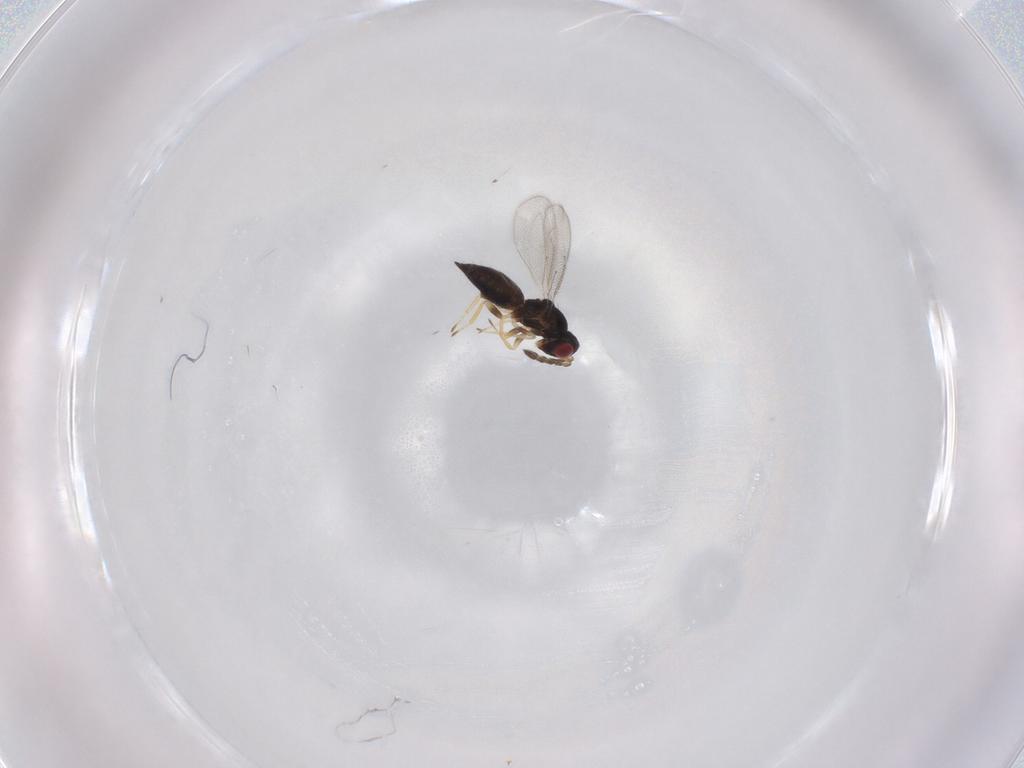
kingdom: Animalia
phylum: Arthropoda
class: Insecta
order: Hymenoptera
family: Eulophidae
